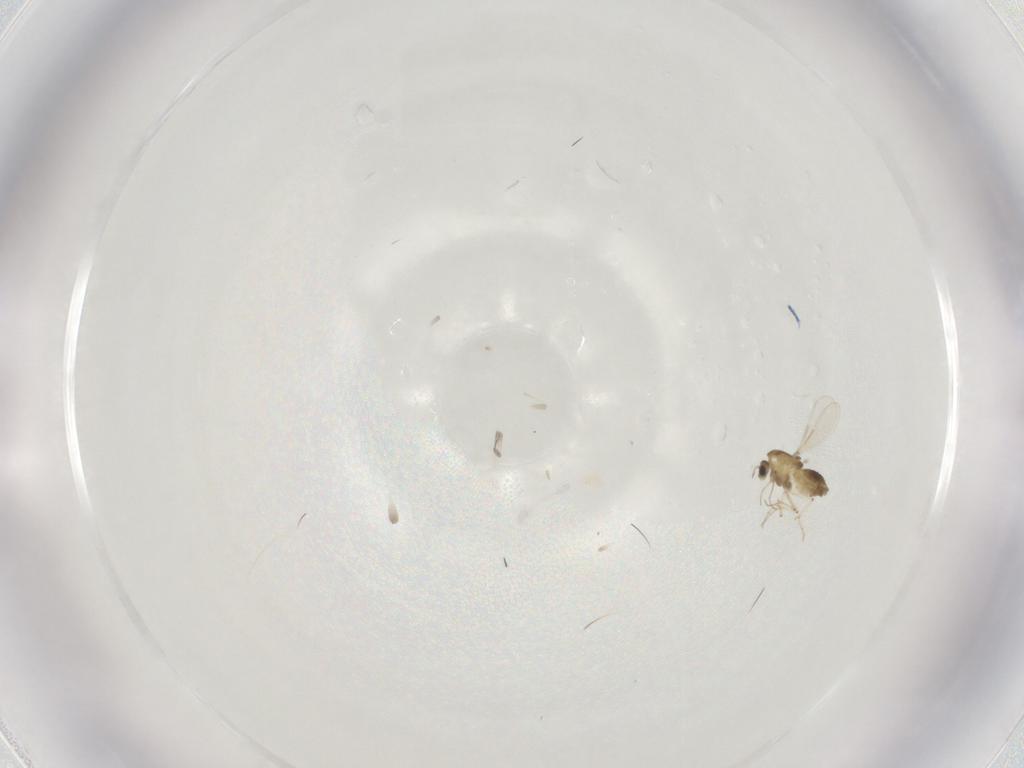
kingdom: Animalia
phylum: Arthropoda
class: Insecta
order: Diptera
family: Chironomidae
